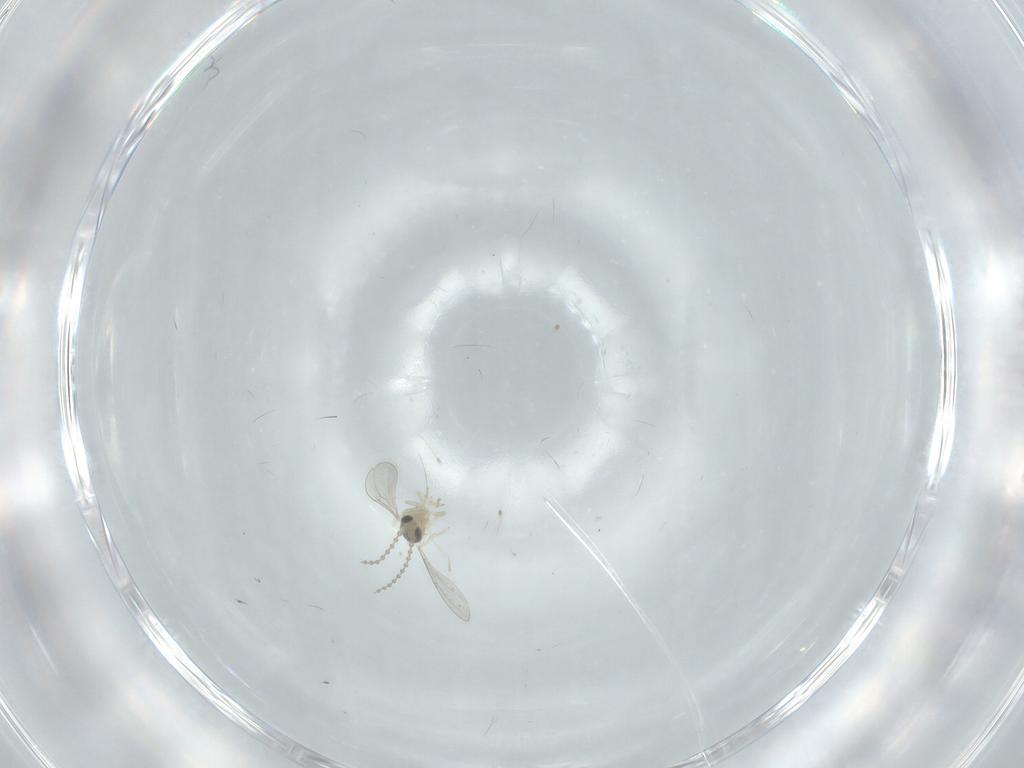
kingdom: Animalia
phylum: Arthropoda
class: Insecta
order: Diptera
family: Cecidomyiidae
